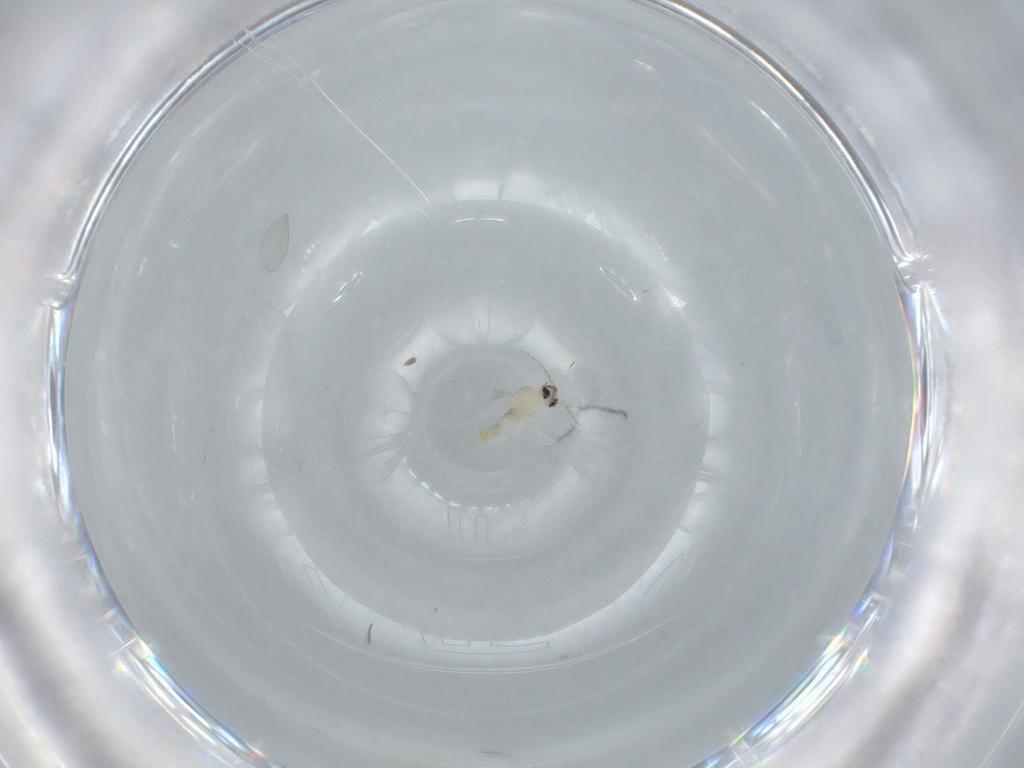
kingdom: Animalia
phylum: Arthropoda
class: Insecta
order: Diptera
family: Cecidomyiidae
